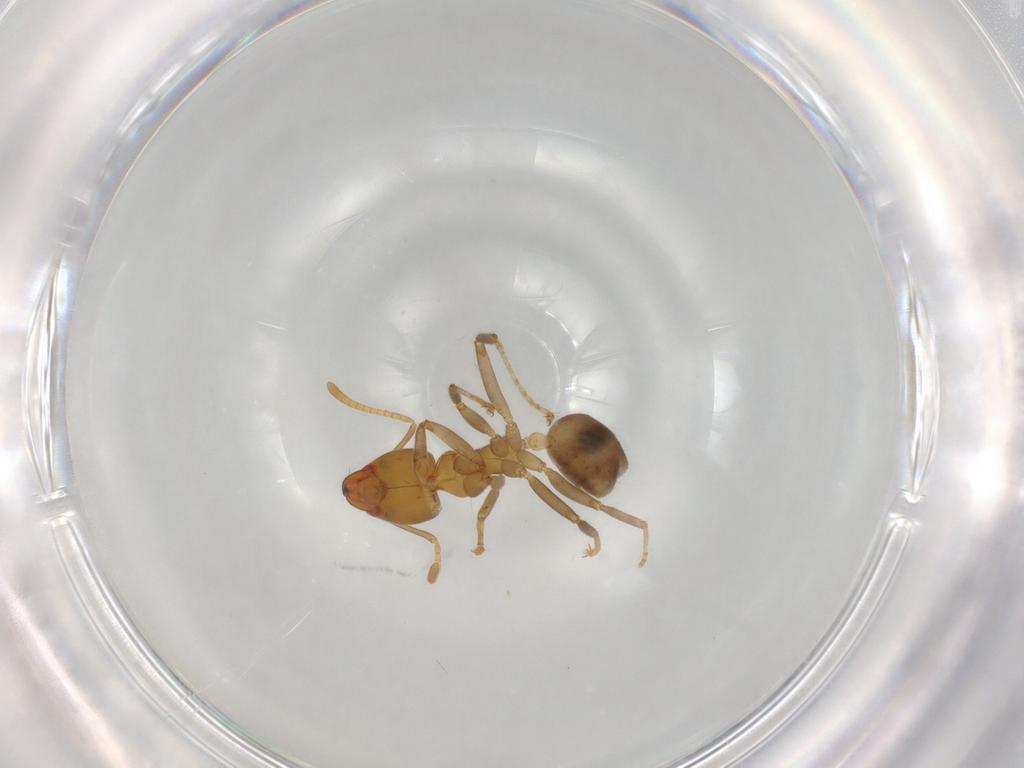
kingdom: Animalia
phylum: Arthropoda
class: Insecta
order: Hymenoptera
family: Formicidae
